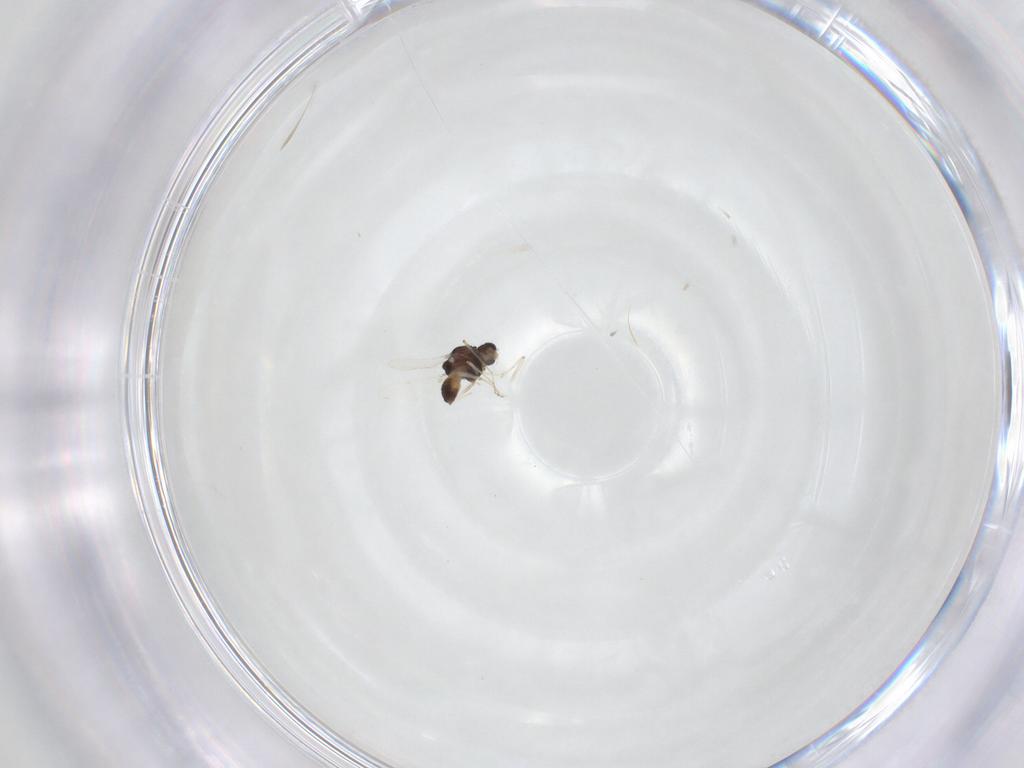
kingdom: Animalia
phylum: Arthropoda
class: Insecta
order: Diptera
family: Chironomidae
